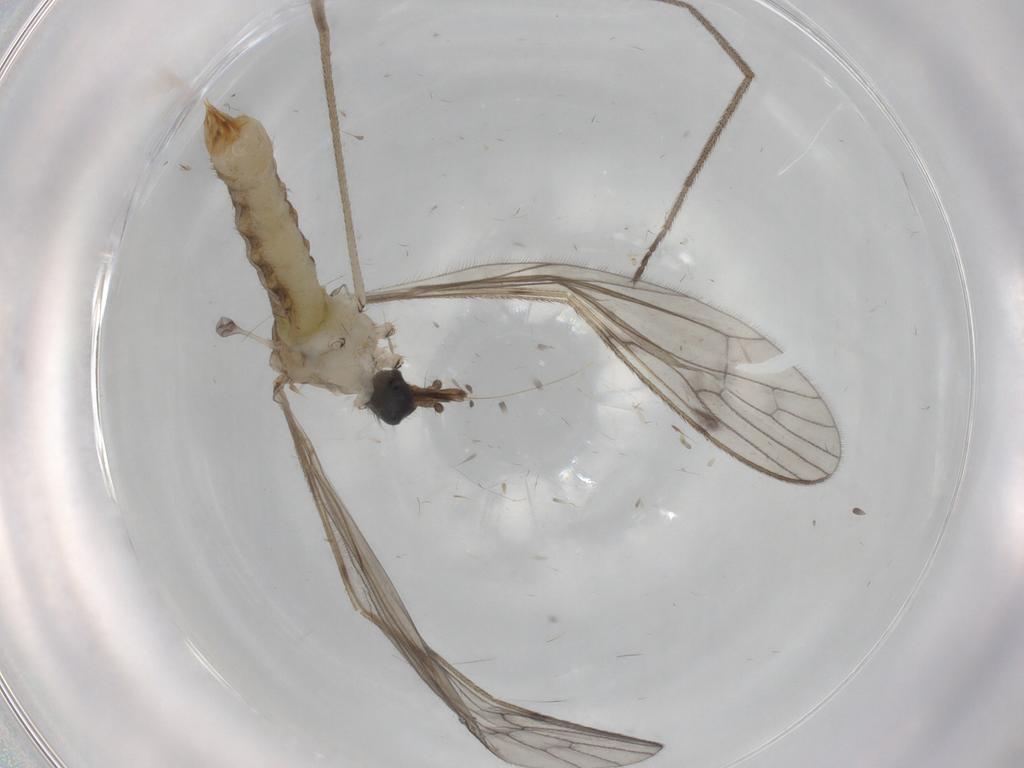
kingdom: Animalia
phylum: Arthropoda
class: Insecta
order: Diptera
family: Limoniidae
